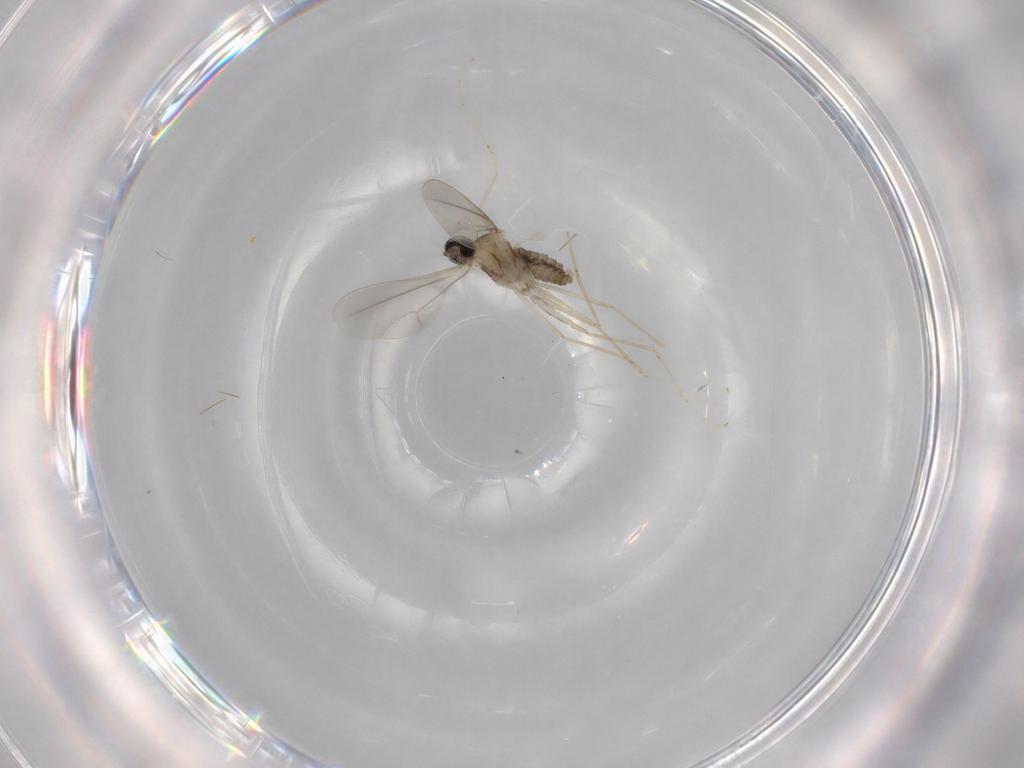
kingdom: Animalia
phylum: Arthropoda
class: Insecta
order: Diptera
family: Cecidomyiidae
